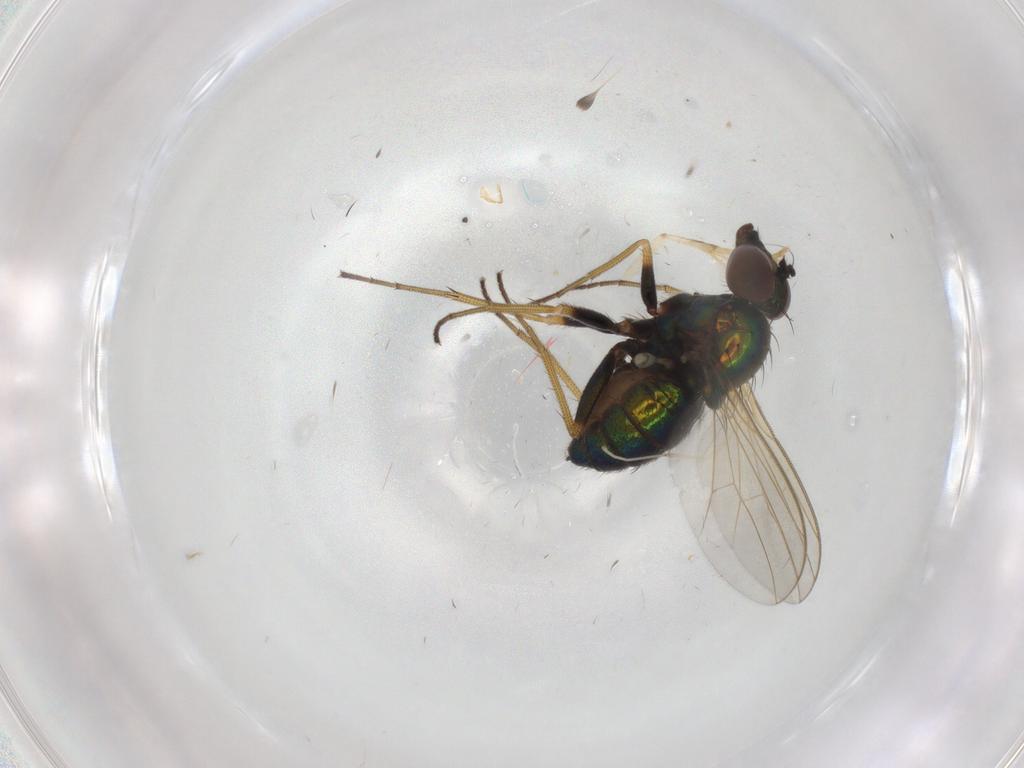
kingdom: Animalia
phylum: Arthropoda
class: Insecta
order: Diptera
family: Dolichopodidae
